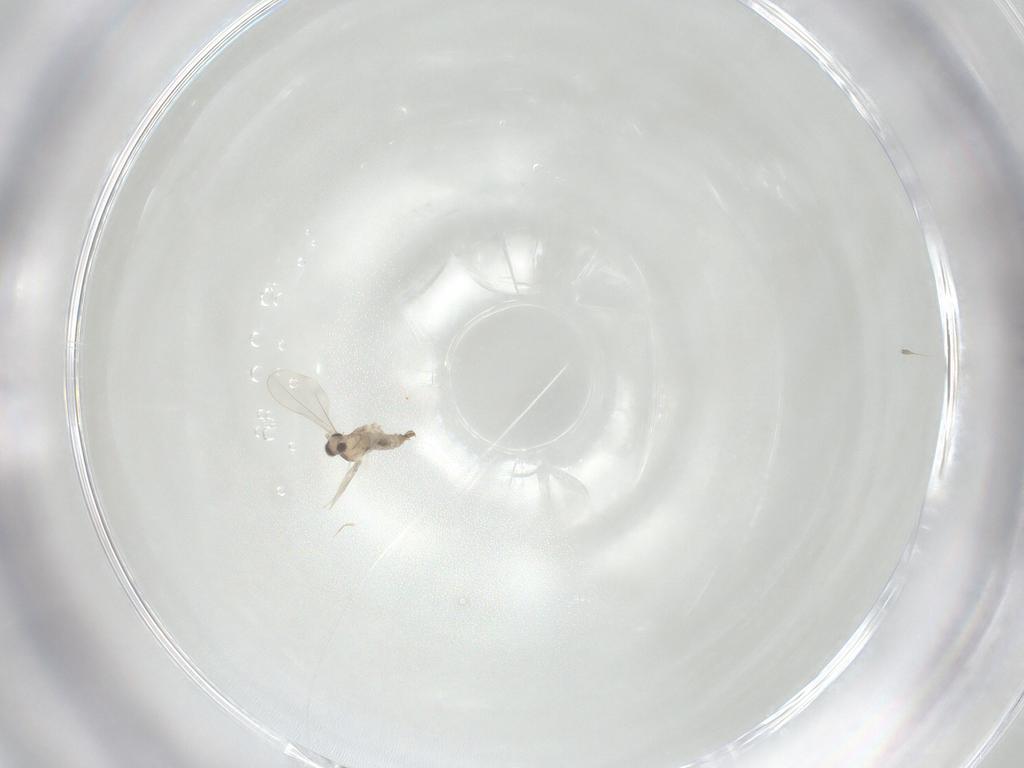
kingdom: Animalia
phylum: Arthropoda
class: Insecta
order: Diptera
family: Cecidomyiidae
